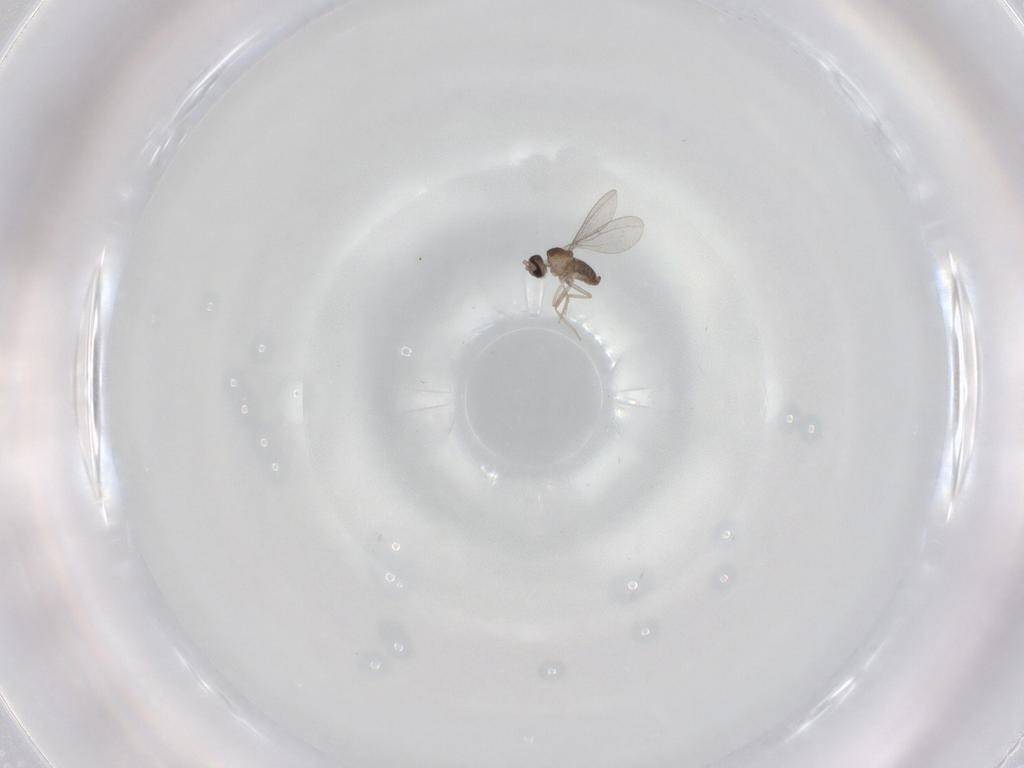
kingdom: Animalia
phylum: Arthropoda
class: Insecta
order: Diptera
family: Cecidomyiidae
